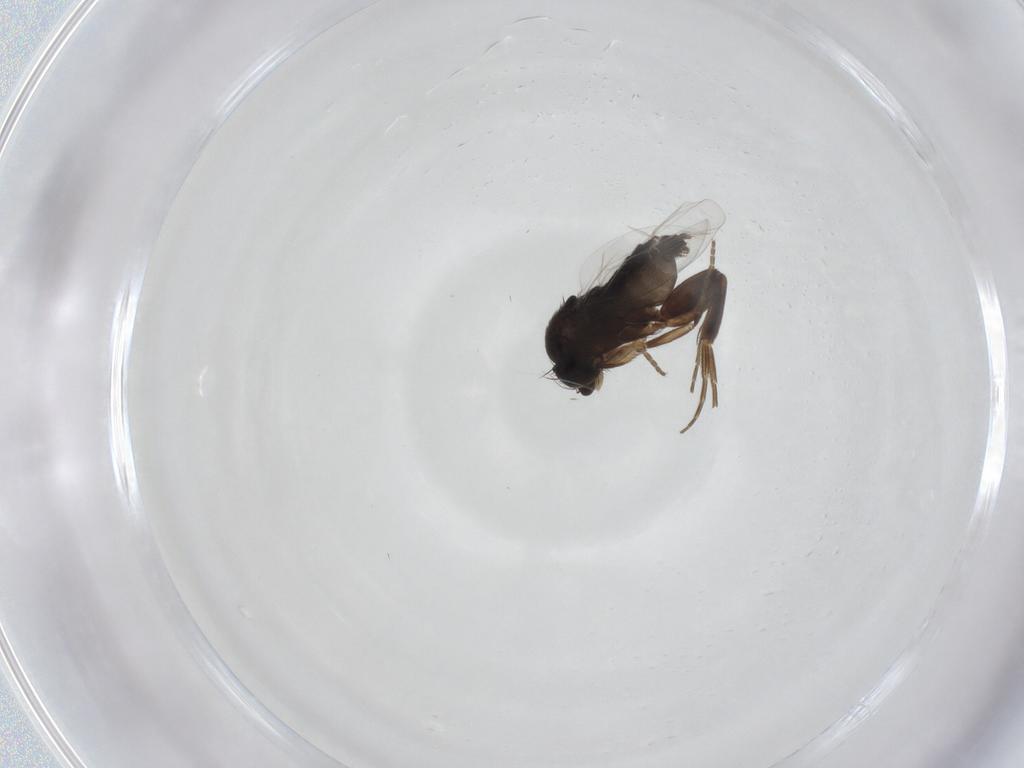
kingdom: Animalia
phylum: Arthropoda
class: Insecta
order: Diptera
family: Phoridae
